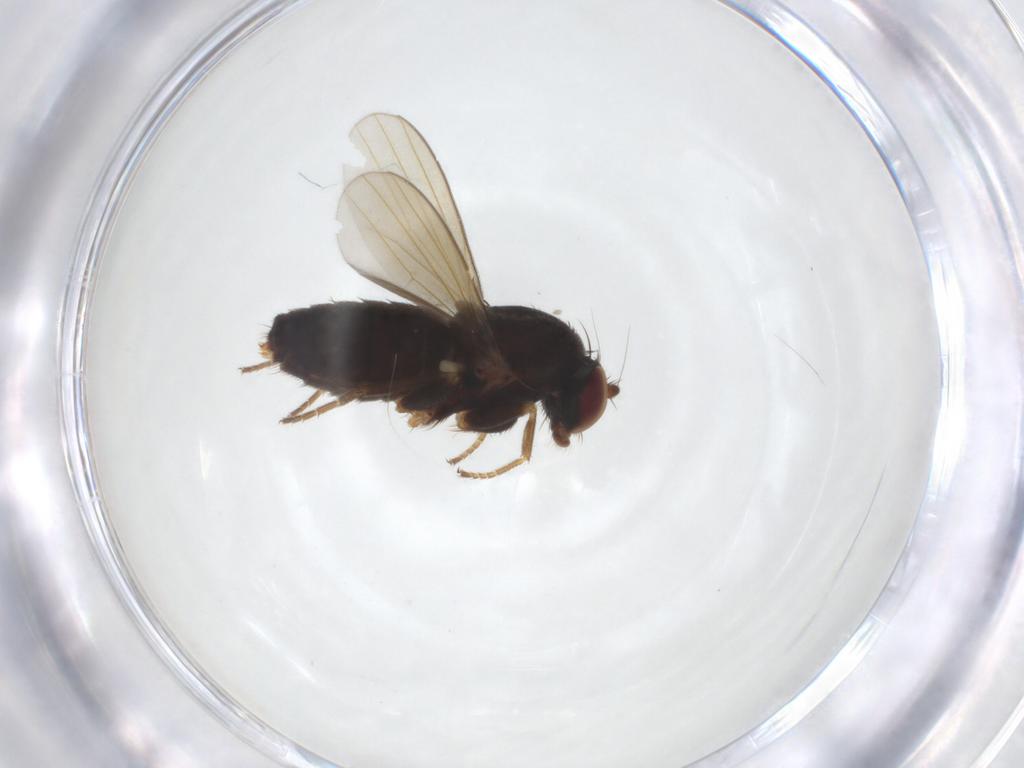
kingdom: Animalia
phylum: Arthropoda
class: Insecta
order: Diptera
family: Dolichopodidae
